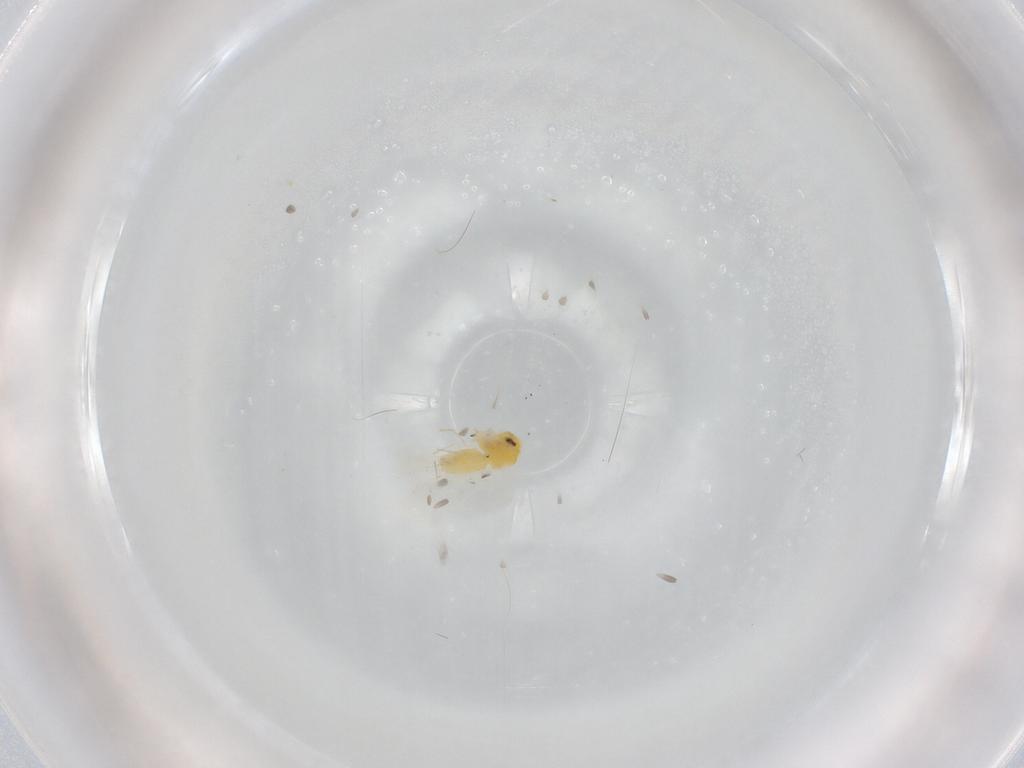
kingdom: Animalia
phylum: Arthropoda
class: Insecta
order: Hemiptera
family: Aleyrodidae
